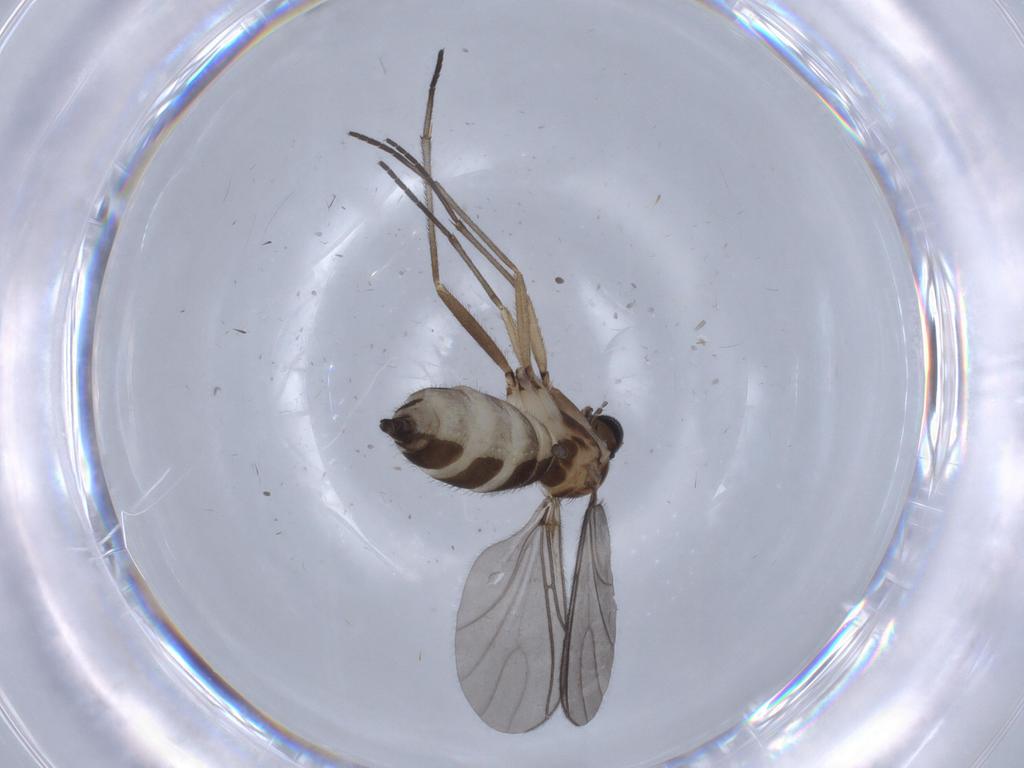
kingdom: Animalia
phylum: Arthropoda
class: Insecta
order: Diptera
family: Sciaridae
